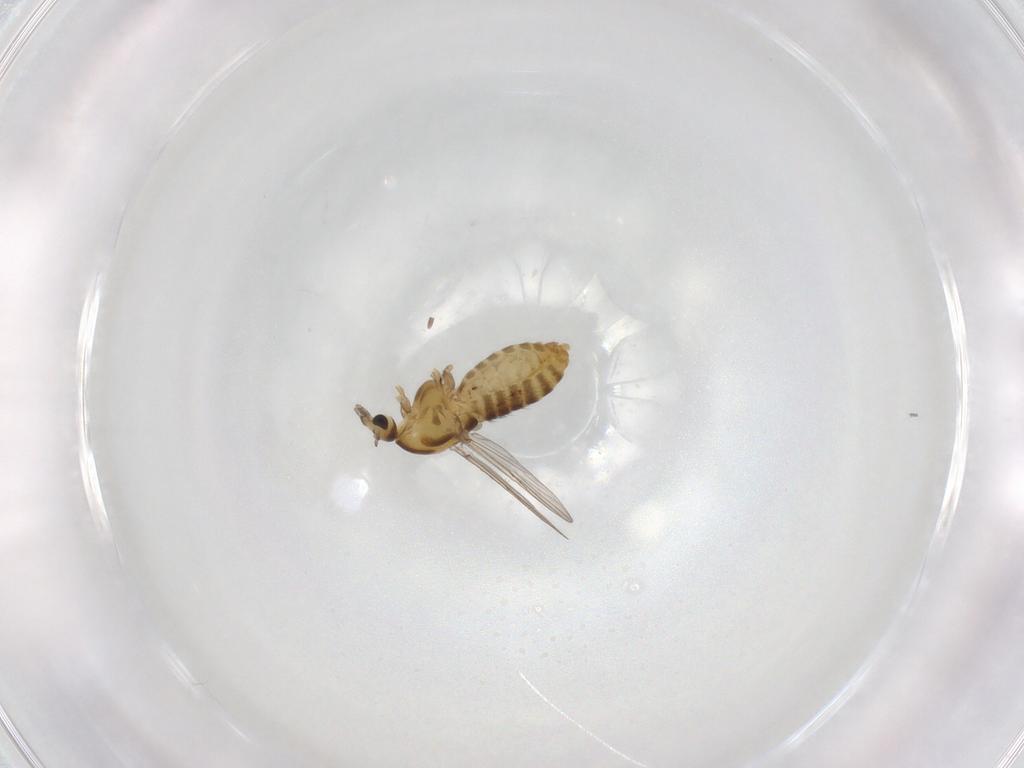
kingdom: Animalia
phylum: Arthropoda
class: Insecta
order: Diptera
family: Chironomidae
